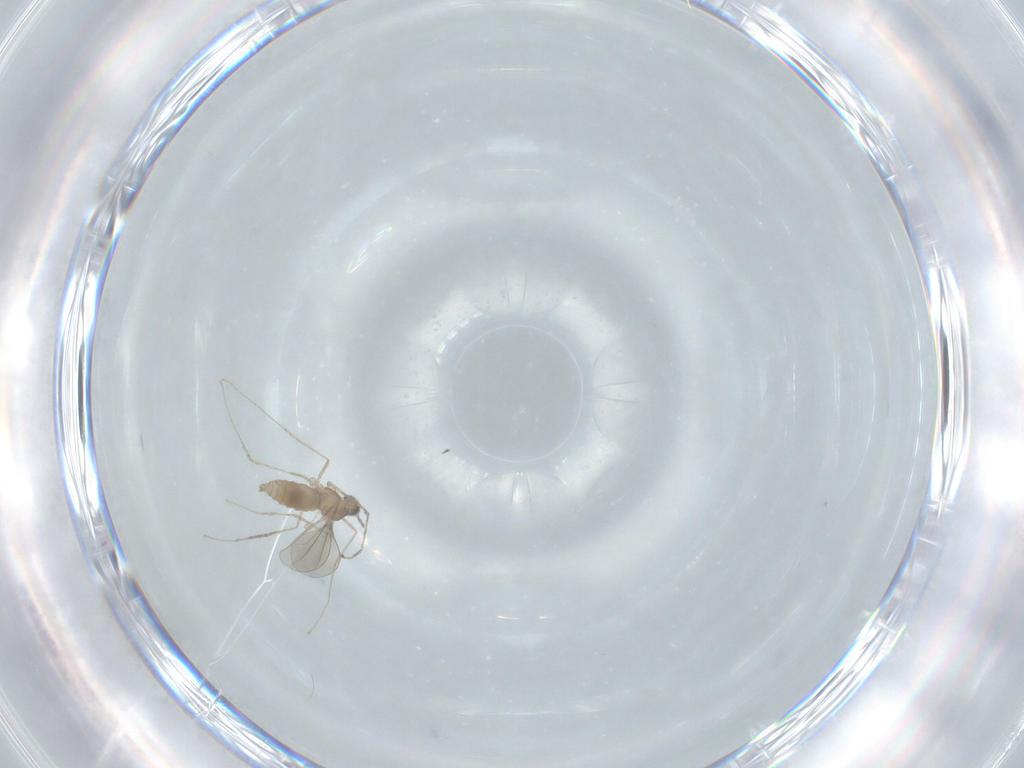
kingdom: Animalia
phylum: Arthropoda
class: Insecta
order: Diptera
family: Cecidomyiidae
